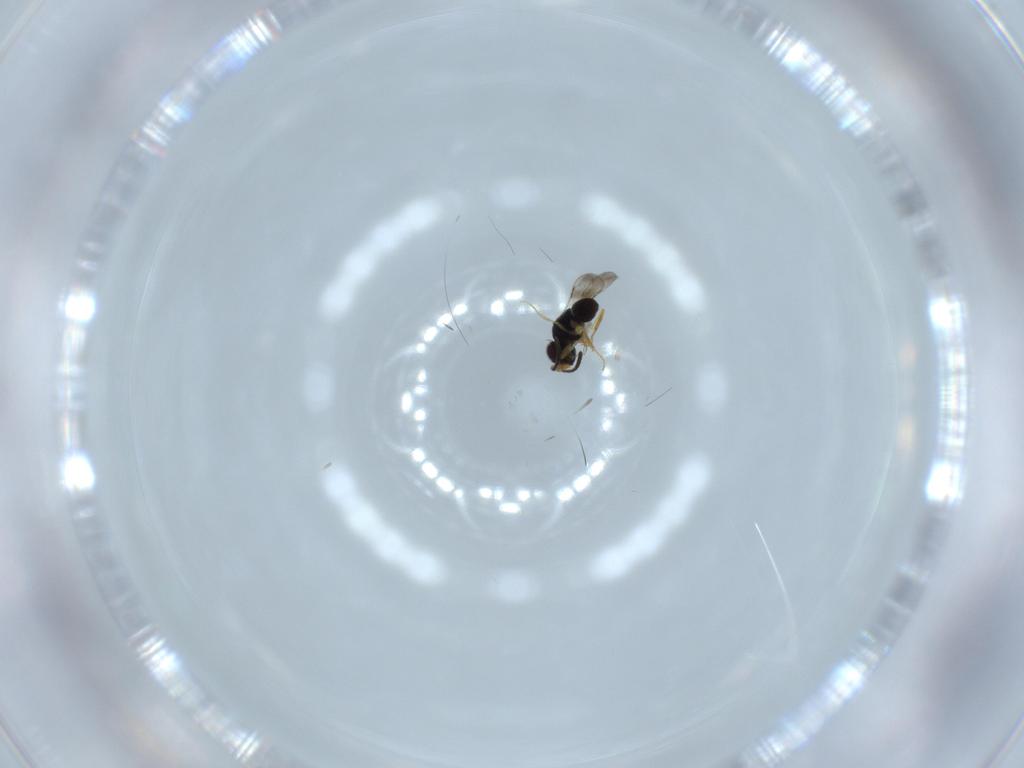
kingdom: Animalia
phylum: Arthropoda
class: Insecta
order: Hymenoptera
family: Ceraphronidae
